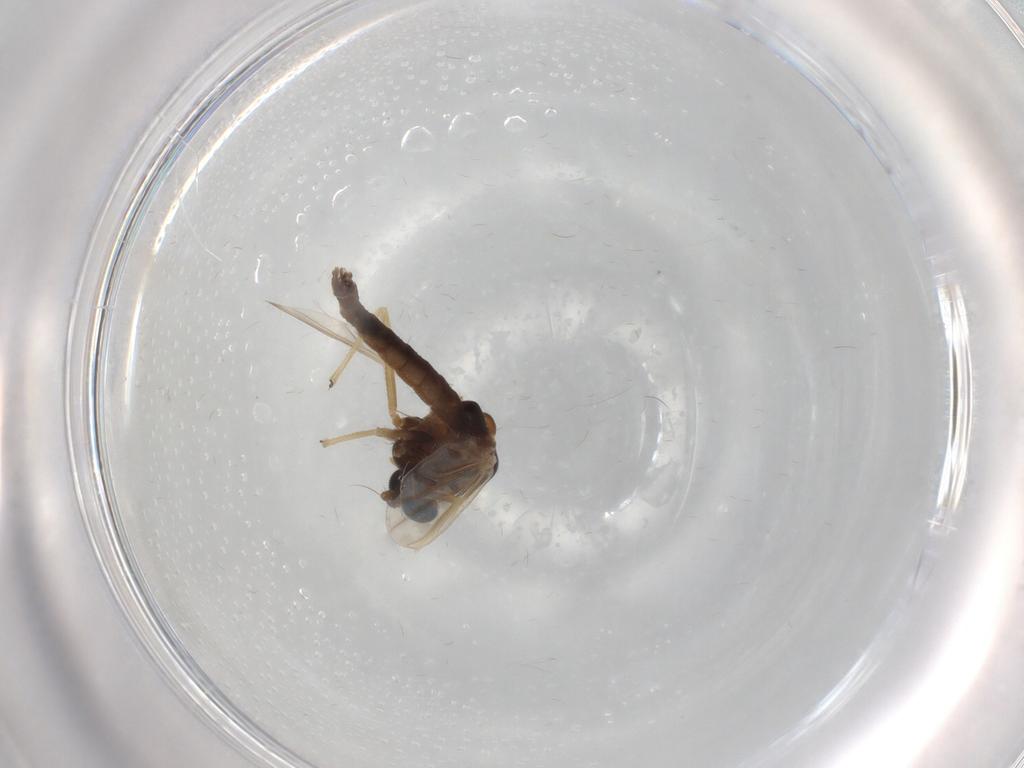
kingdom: Animalia
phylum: Arthropoda
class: Insecta
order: Diptera
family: Chironomidae
